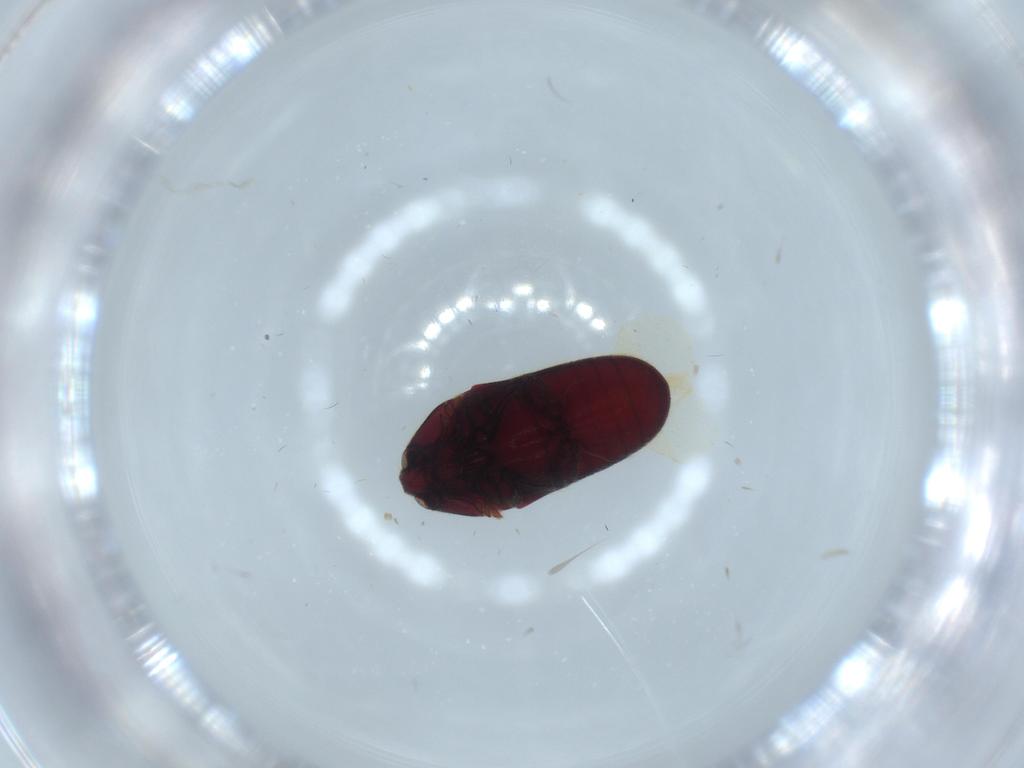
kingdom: Animalia
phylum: Arthropoda
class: Insecta
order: Coleoptera
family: Throscidae
